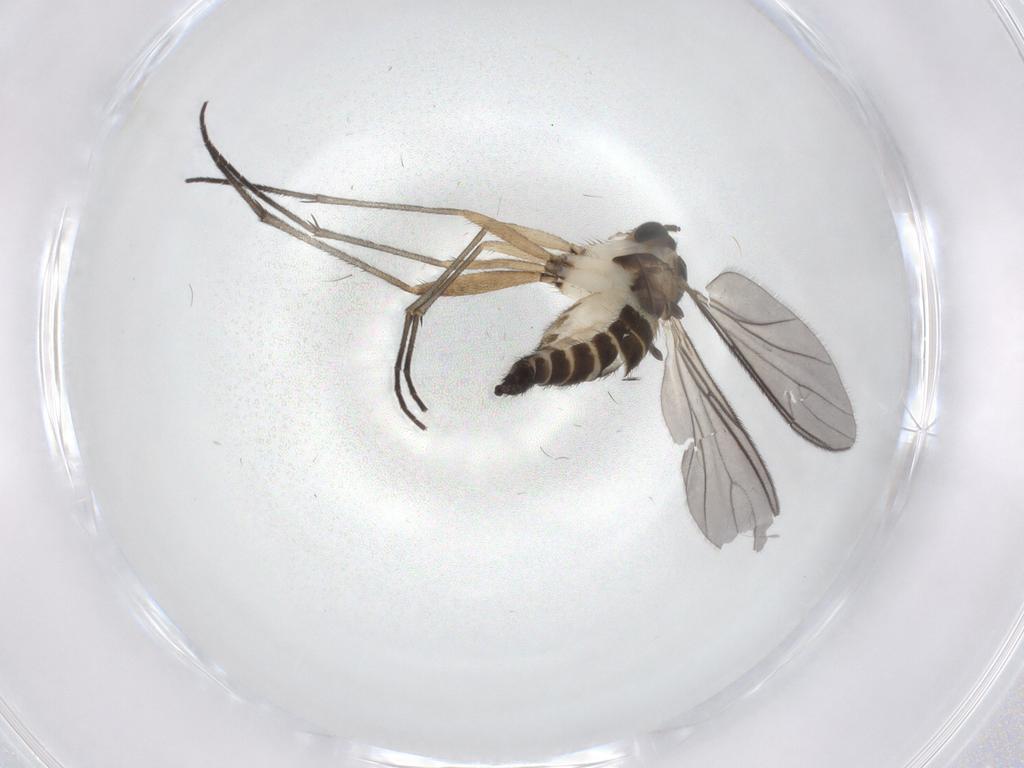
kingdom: Animalia
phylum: Arthropoda
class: Insecta
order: Diptera
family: Sciaridae
